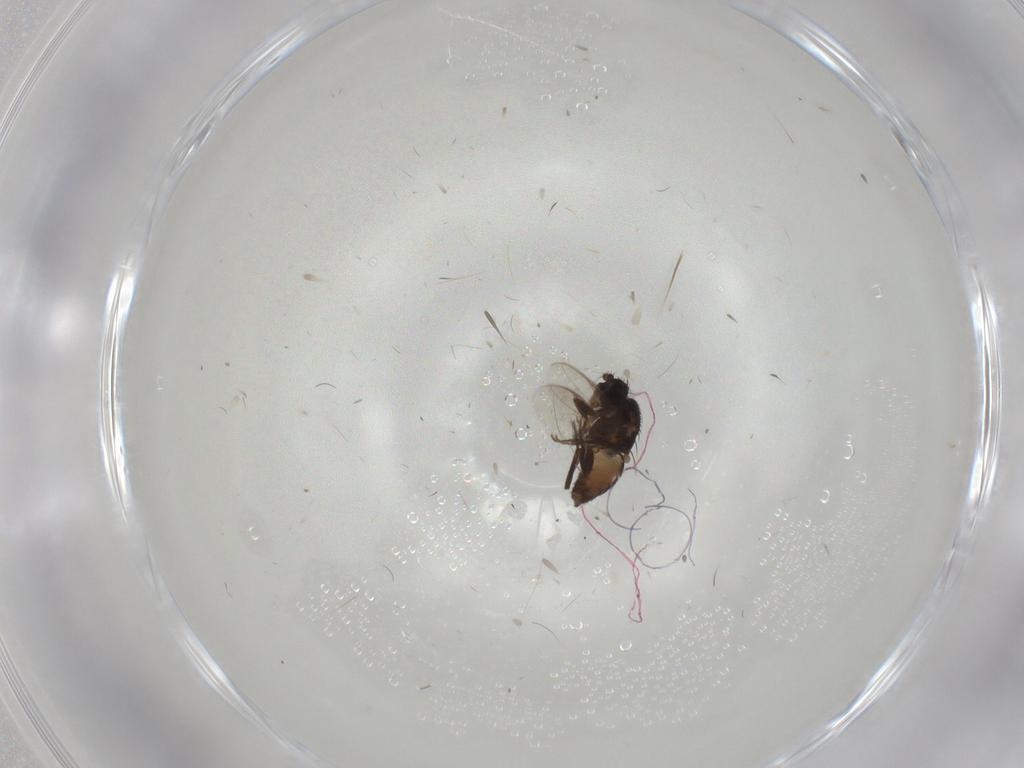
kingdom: Animalia
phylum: Arthropoda
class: Insecta
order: Diptera
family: Sphaeroceridae
